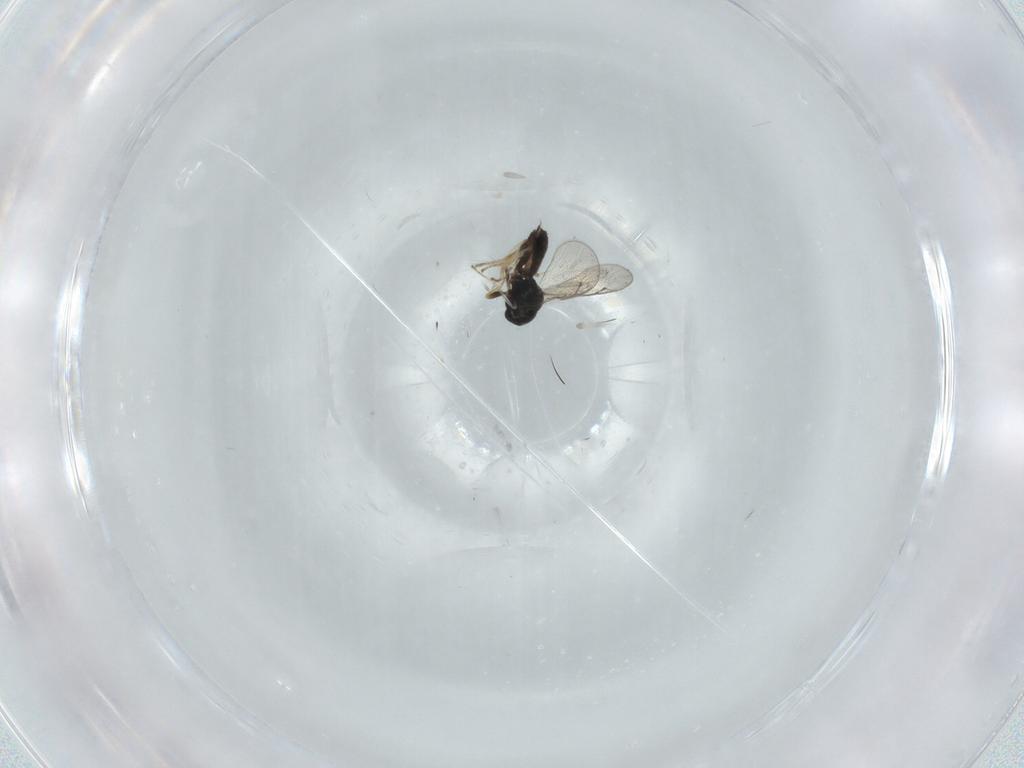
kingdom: Animalia
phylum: Arthropoda
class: Insecta
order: Hymenoptera
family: Pteromalidae
